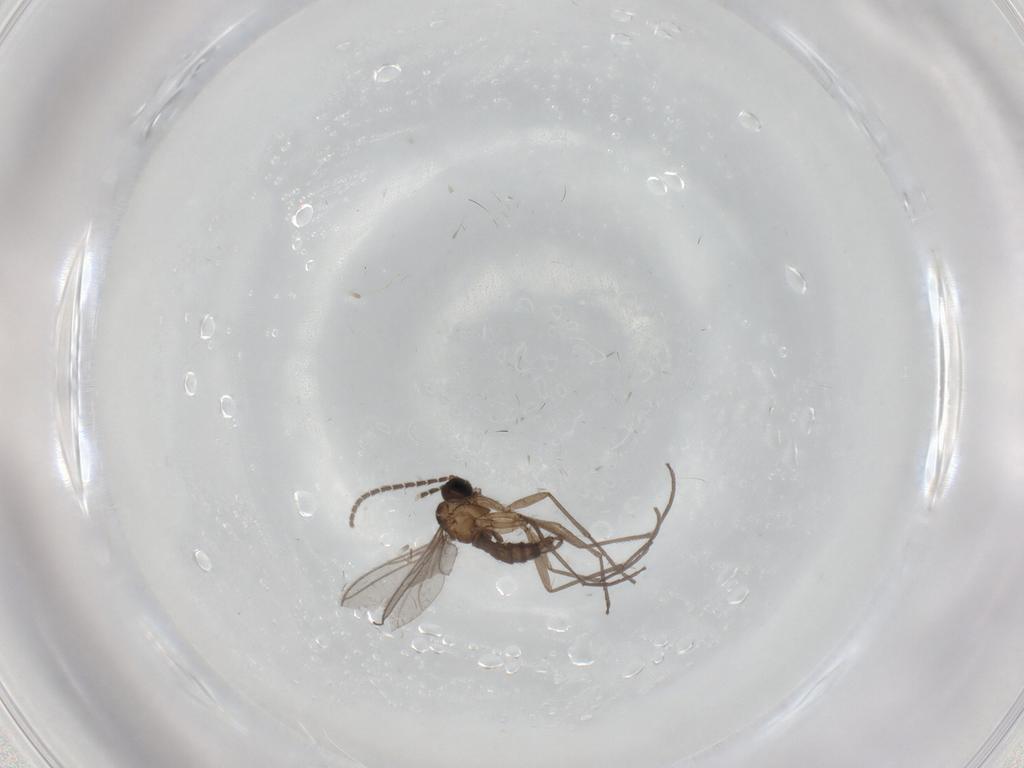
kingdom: Animalia
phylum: Arthropoda
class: Insecta
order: Diptera
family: Sciaridae
